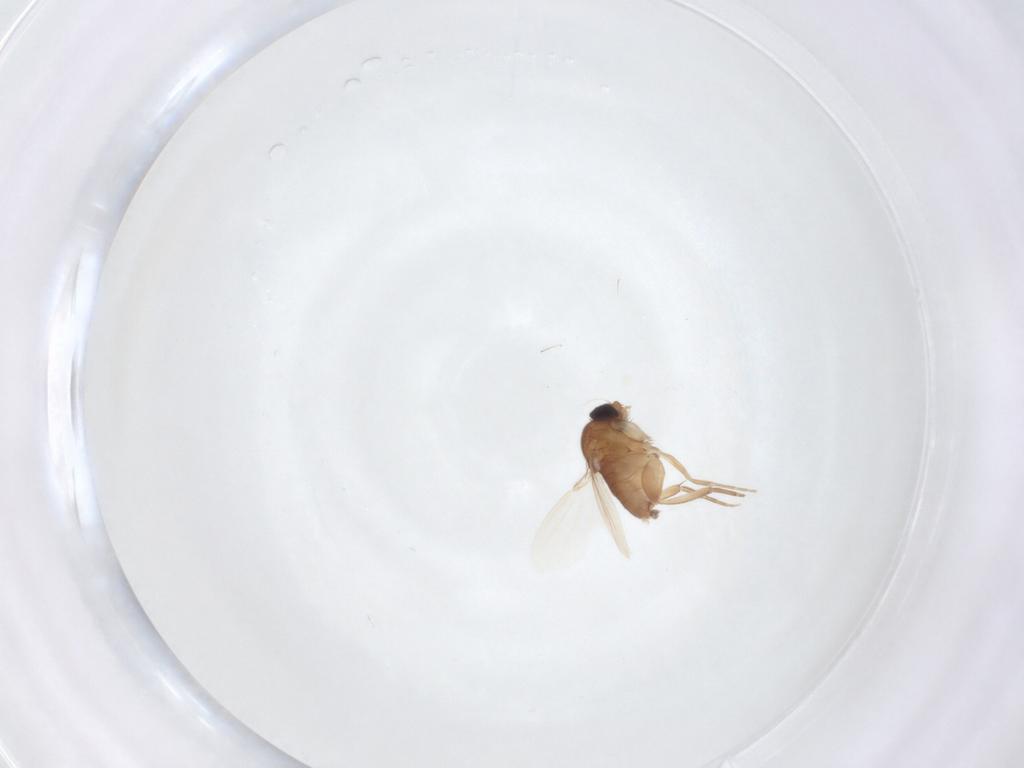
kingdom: Animalia
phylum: Arthropoda
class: Insecta
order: Diptera
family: Phoridae
